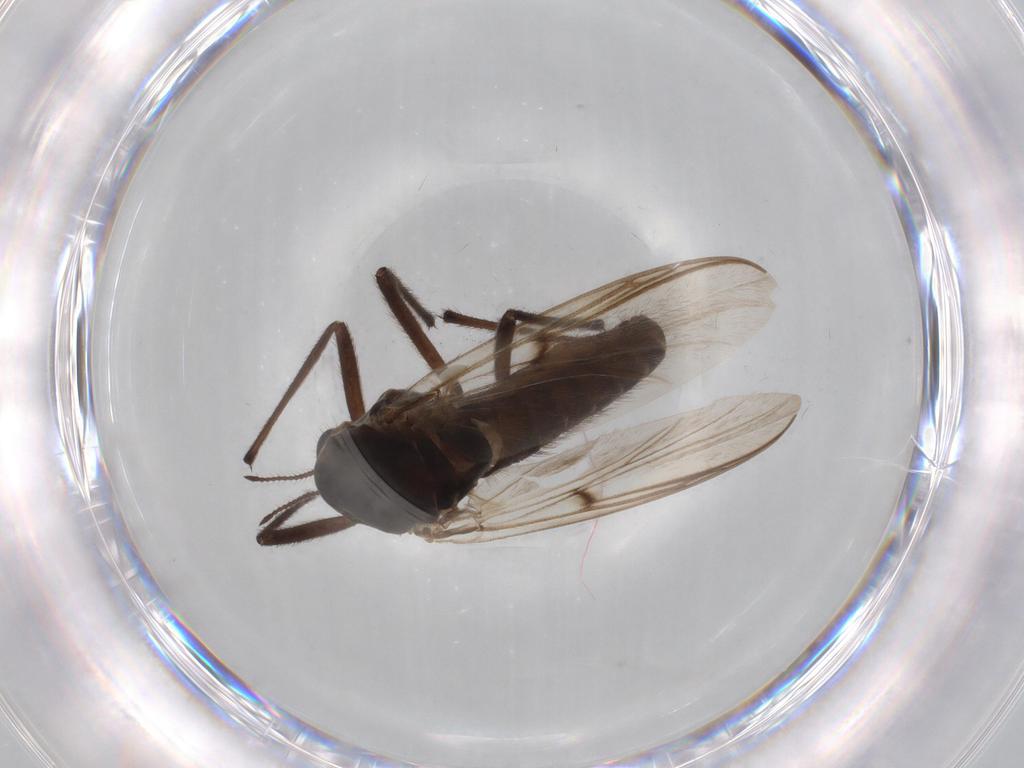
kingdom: Animalia
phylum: Arthropoda
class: Insecta
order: Diptera
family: Chironomidae
